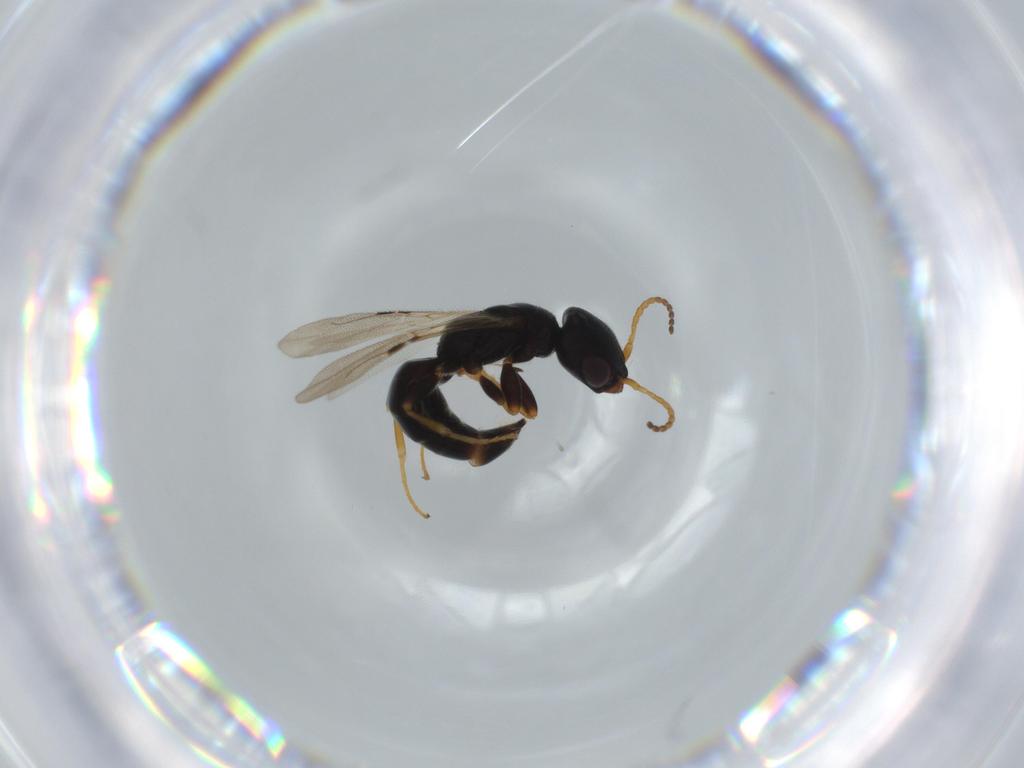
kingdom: Animalia
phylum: Arthropoda
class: Insecta
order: Hymenoptera
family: Bethylidae
